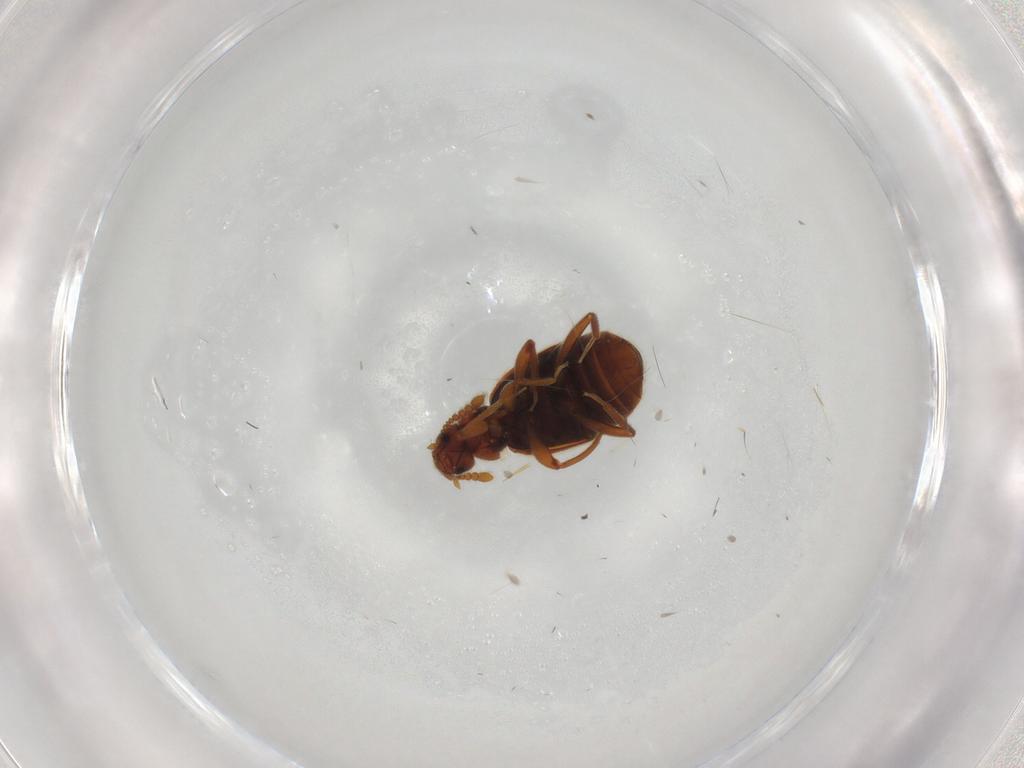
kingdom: Animalia
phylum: Arthropoda
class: Insecta
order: Coleoptera
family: Staphylinidae
